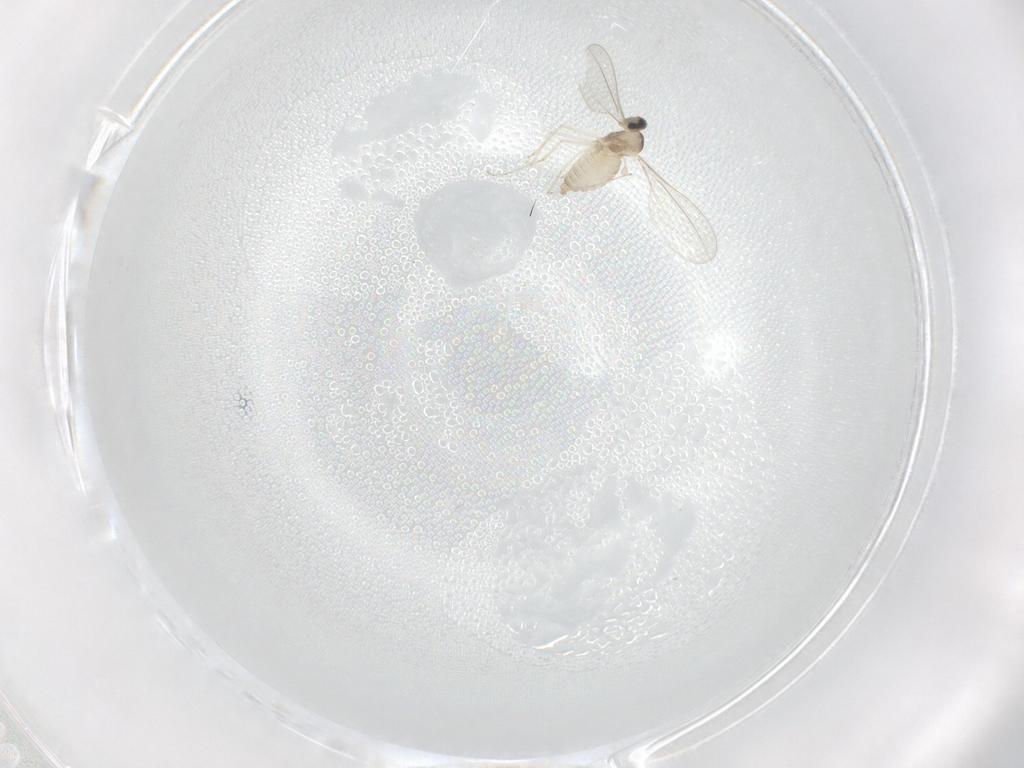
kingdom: Animalia
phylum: Arthropoda
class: Insecta
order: Diptera
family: Cecidomyiidae
